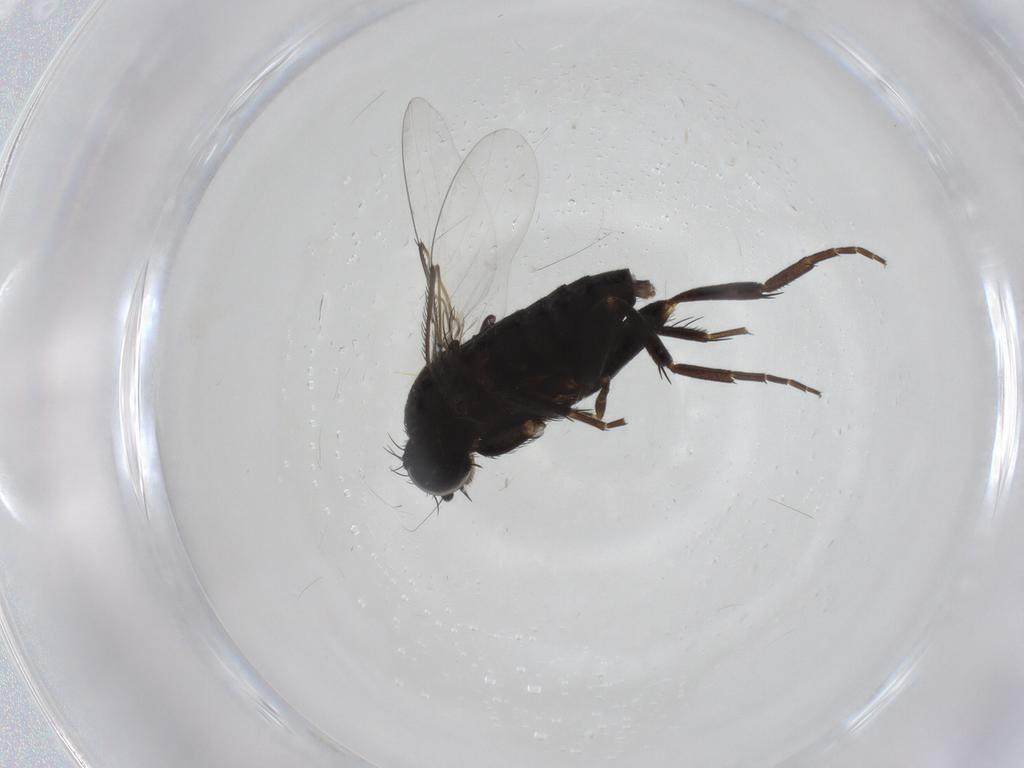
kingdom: Animalia
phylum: Arthropoda
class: Insecta
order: Diptera
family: Phoridae
